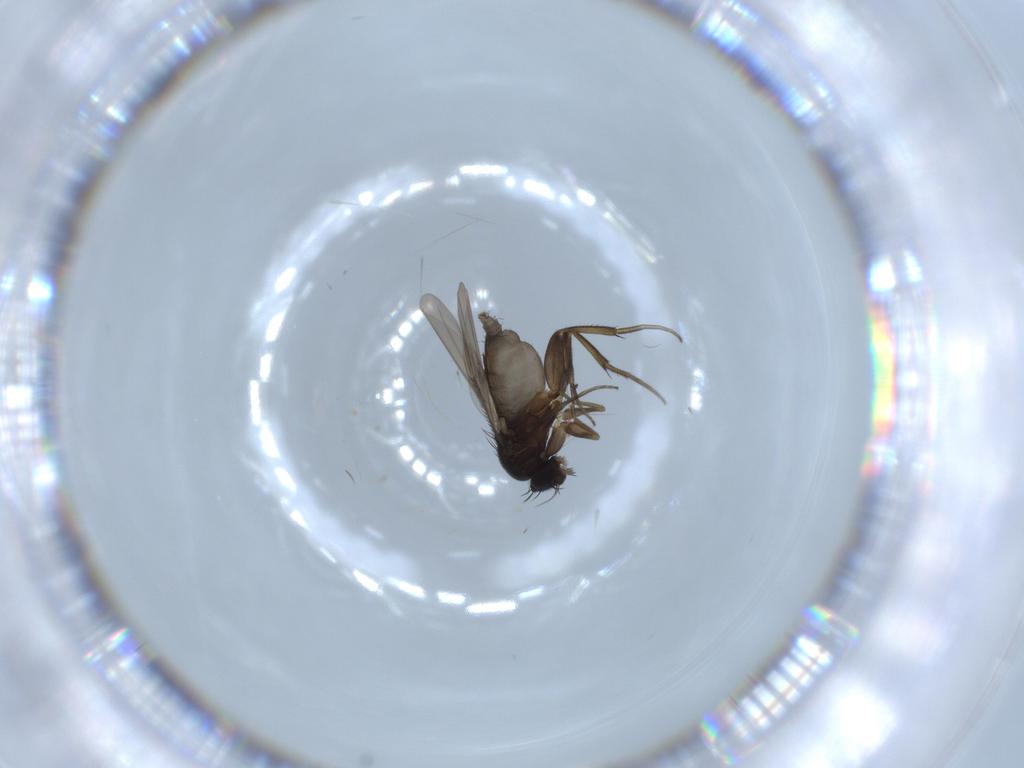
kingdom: Animalia
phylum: Arthropoda
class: Insecta
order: Diptera
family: Phoridae
